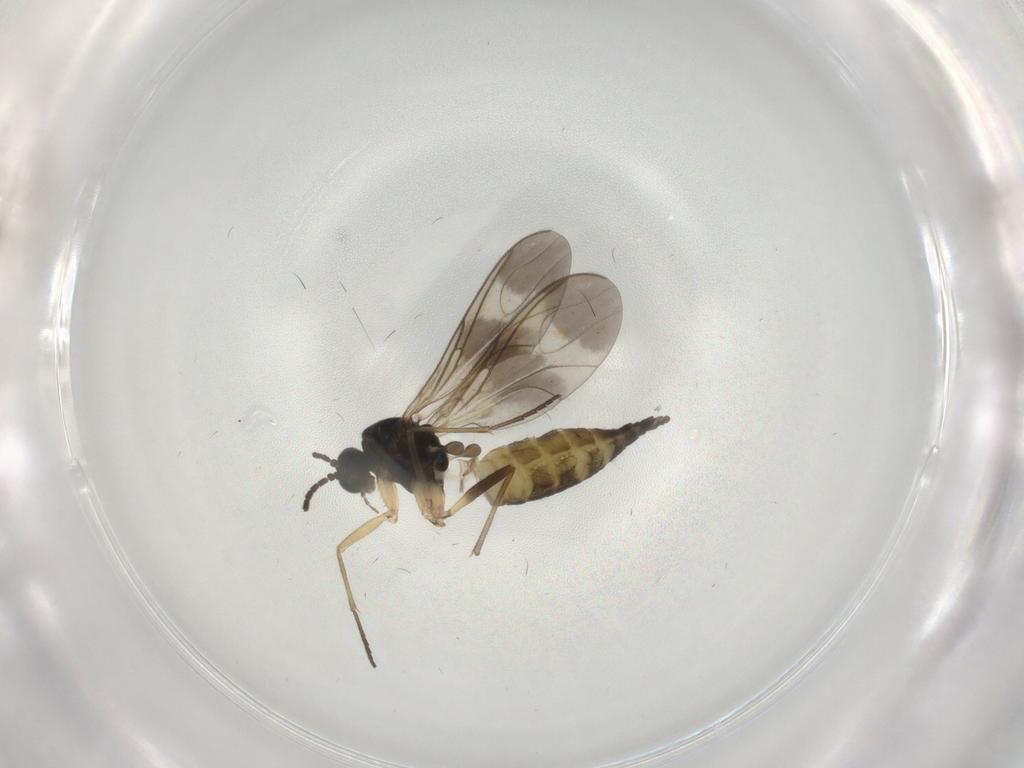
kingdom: Animalia
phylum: Arthropoda
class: Insecta
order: Diptera
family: Sciaridae
